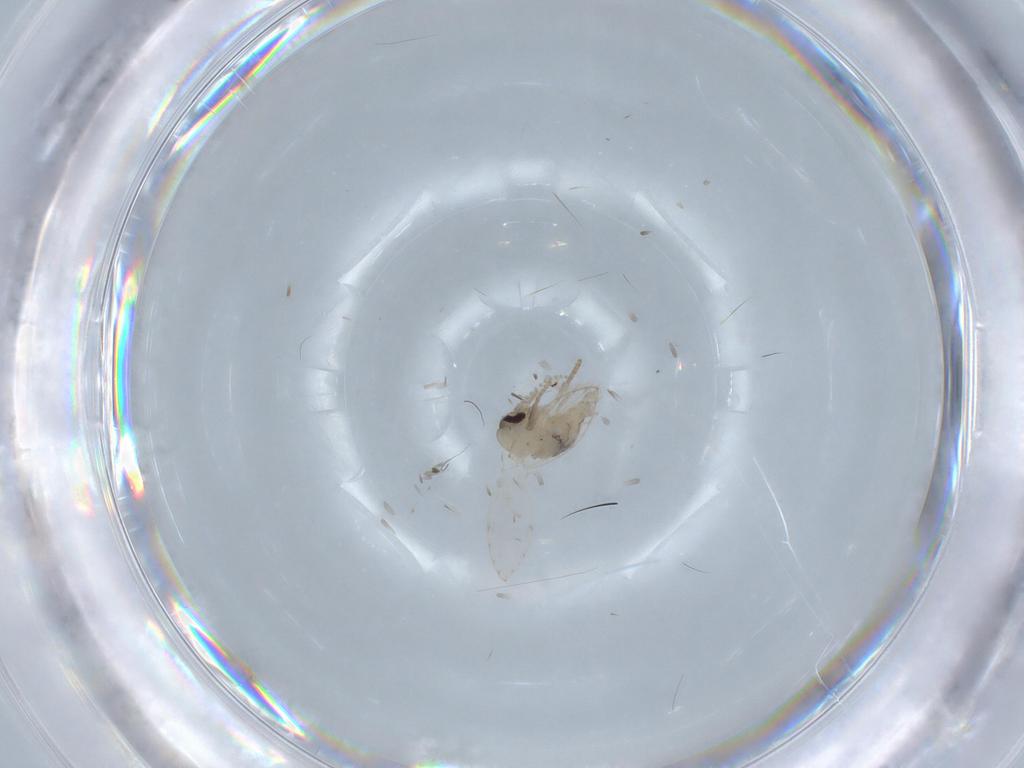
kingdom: Animalia
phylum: Arthropoda
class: Insecta
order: Diptera
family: Psychodidae
